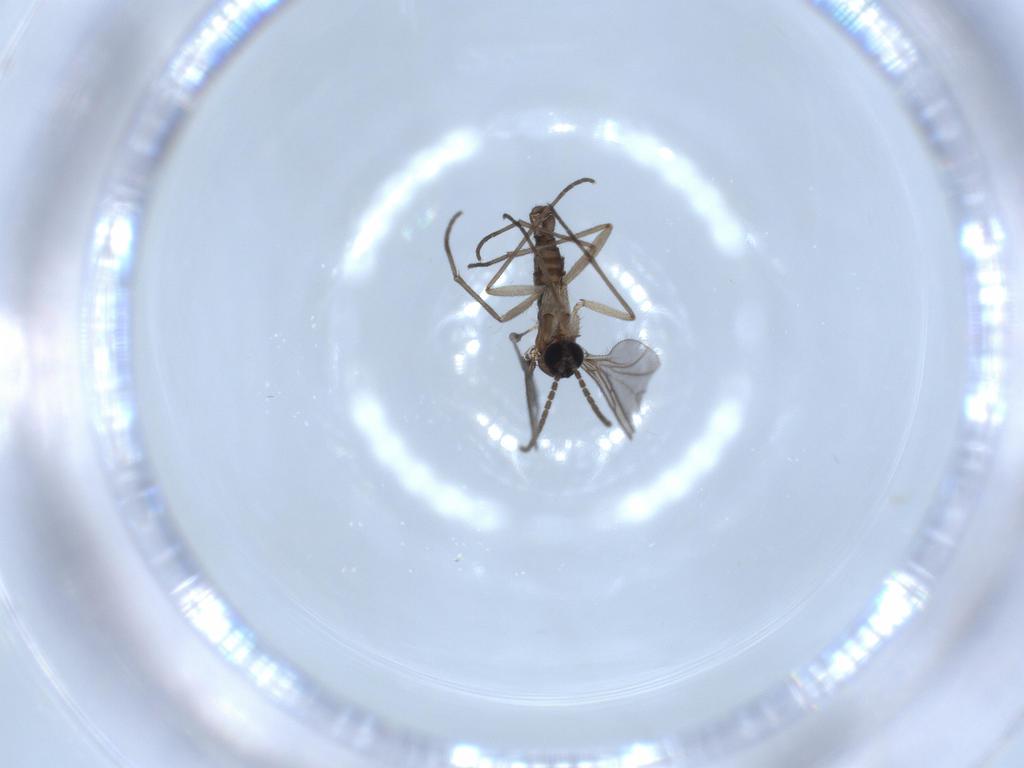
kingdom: Animalia
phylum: Arthropoda
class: Insecta
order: Diptera
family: Sciaridae
